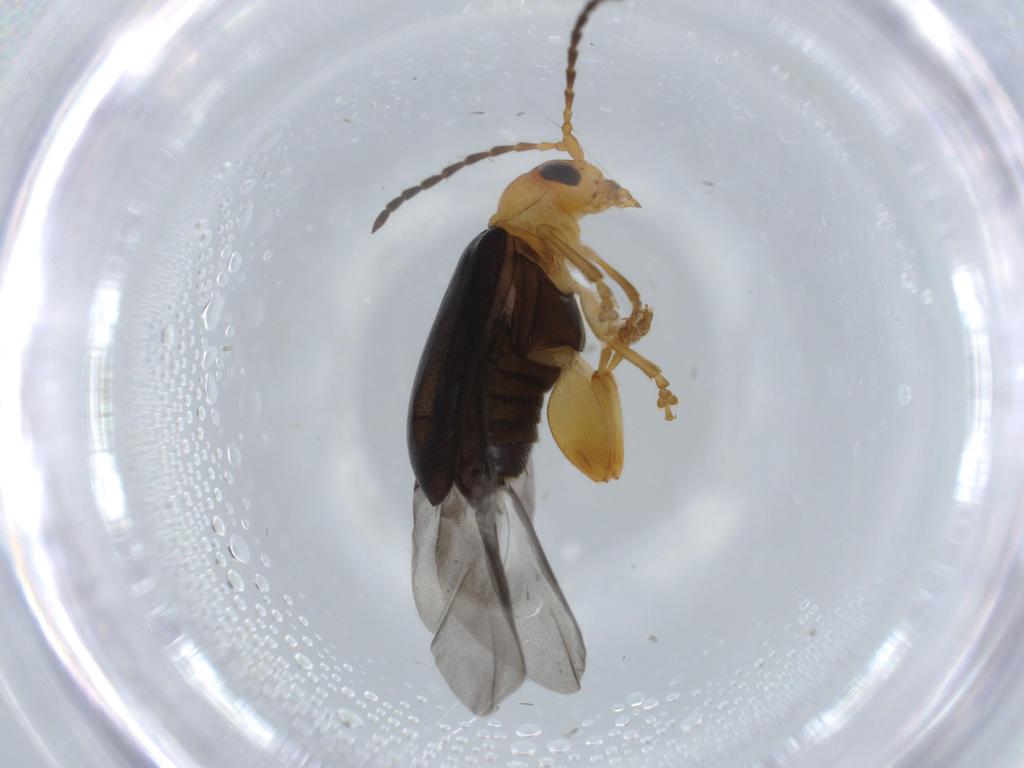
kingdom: Animalia
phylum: Arthropoda
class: Insecta
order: Coleoptera
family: Chrysomelidae
